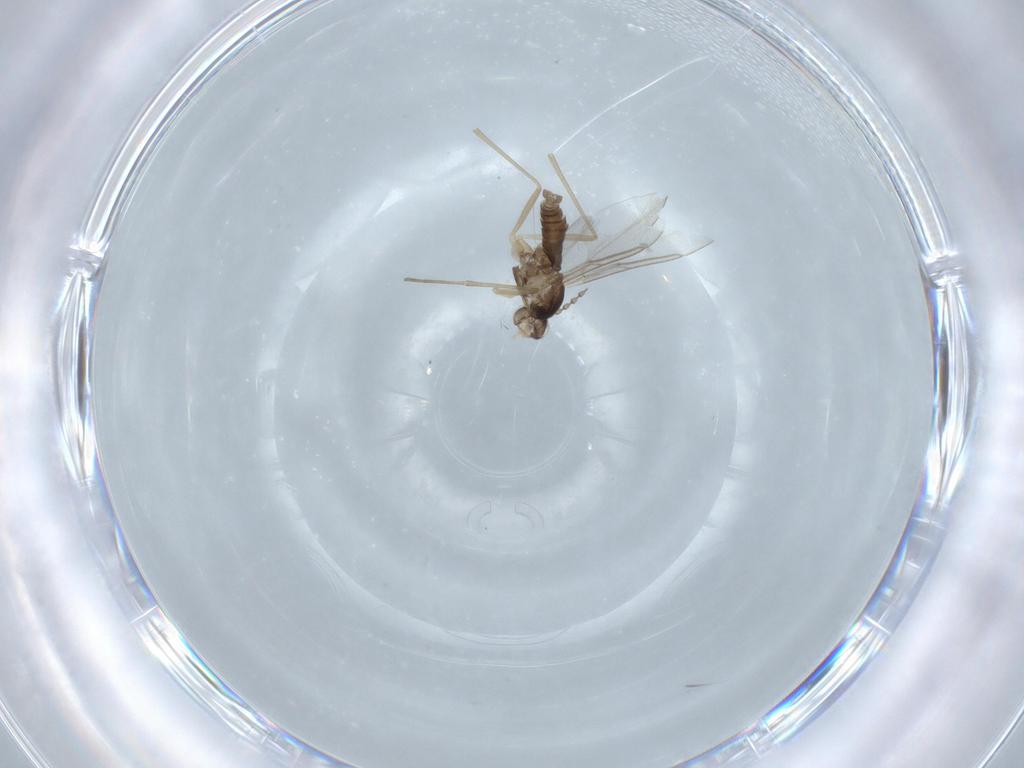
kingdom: Animalia
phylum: Arthropoda
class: Insecta
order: Diptera
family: Cecidomyiidae
